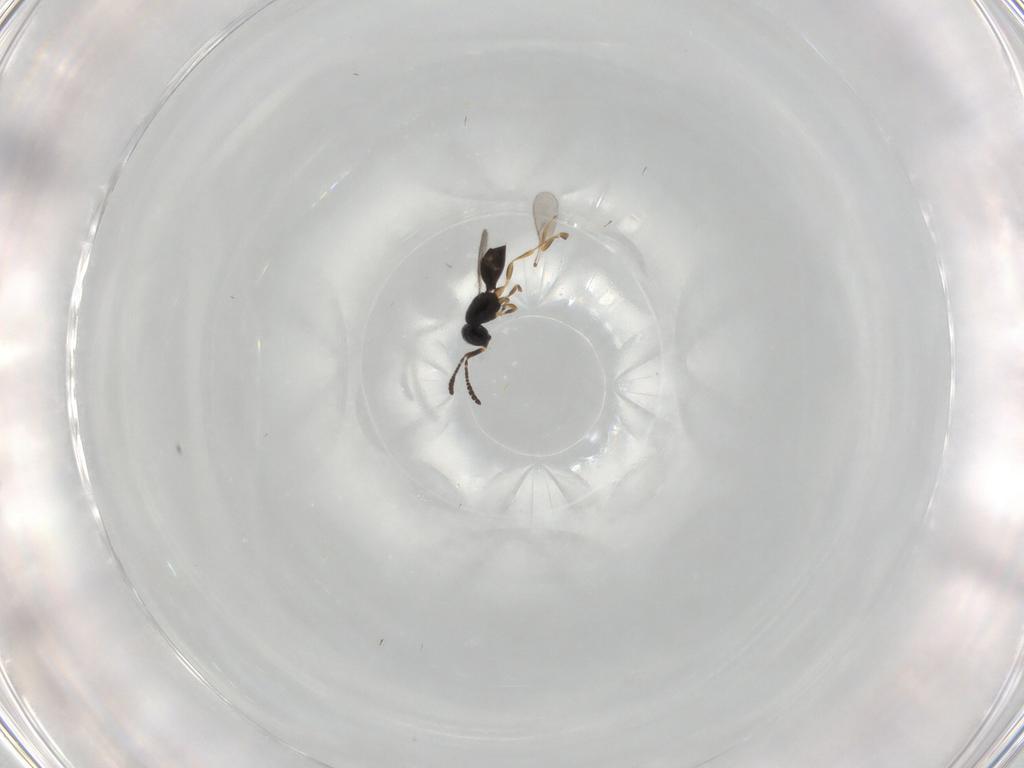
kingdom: Animalia
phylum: Arthropoda
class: Insecta
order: Hymenoptera
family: Scelionidae
